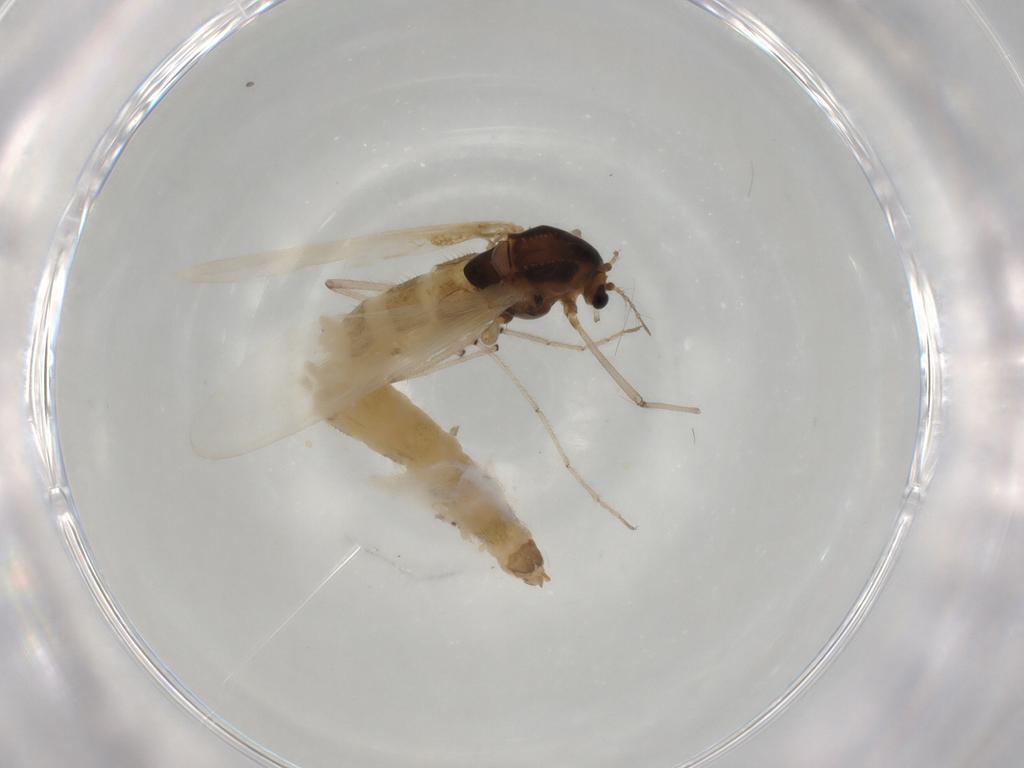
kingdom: Animalia
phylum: Arthropoda
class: Insecta
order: Diptera
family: Chironomidae
